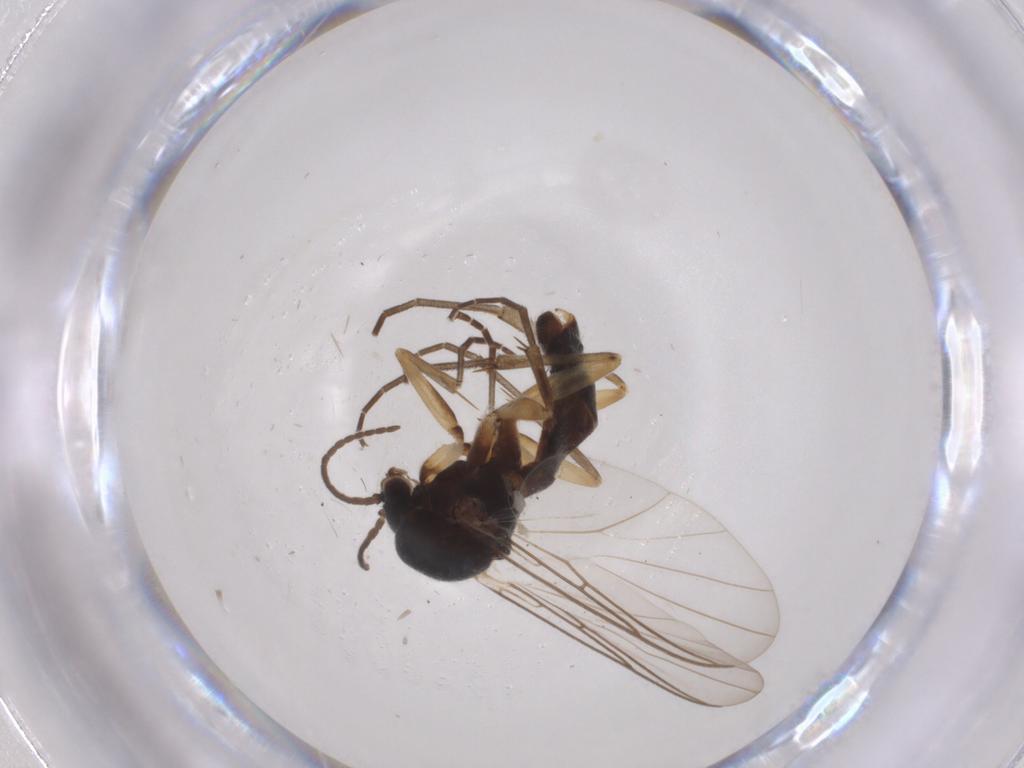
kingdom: Animalia
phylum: Arthropoda
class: Insecta
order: Diptera
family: Mycetophilidae
